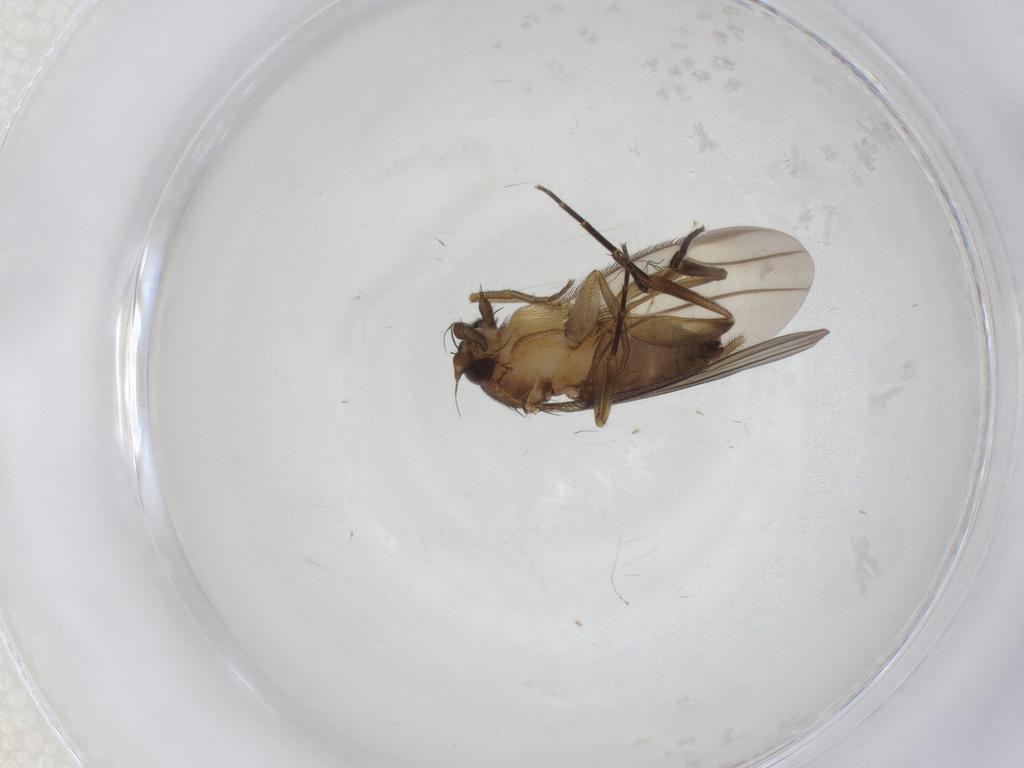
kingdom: Animalia
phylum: Arthropoda
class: Insecta
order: Diptera
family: Phoridae
